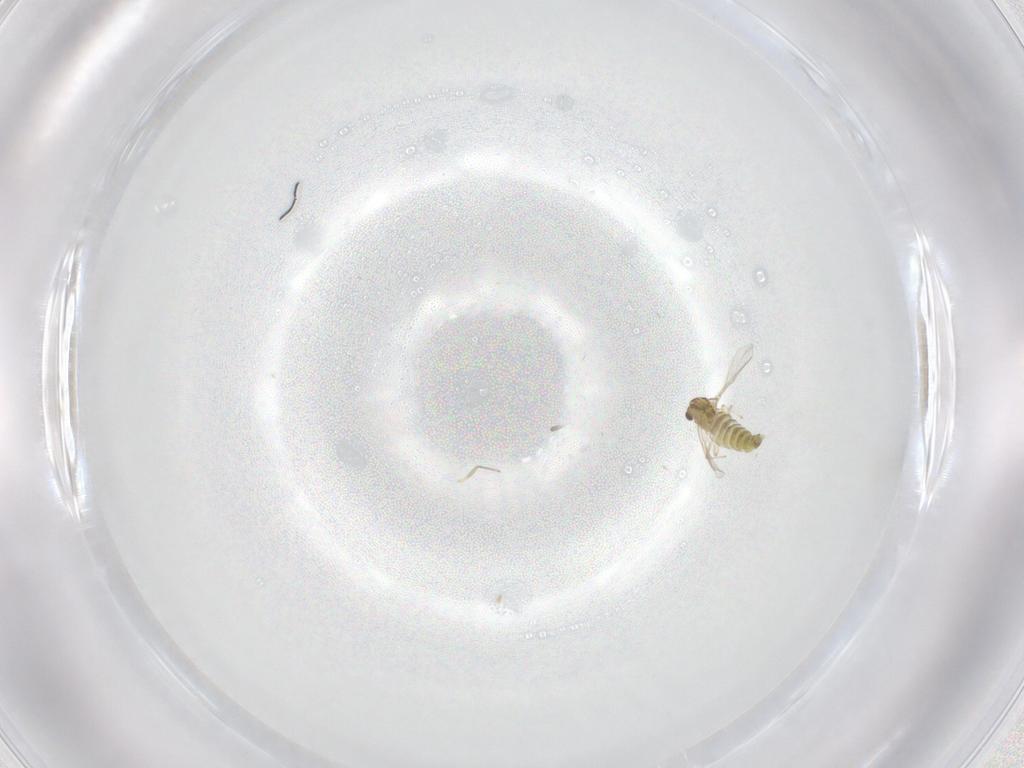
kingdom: Animalia
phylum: Arthropoda
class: Insecta
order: Diptera
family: Chironomidae
